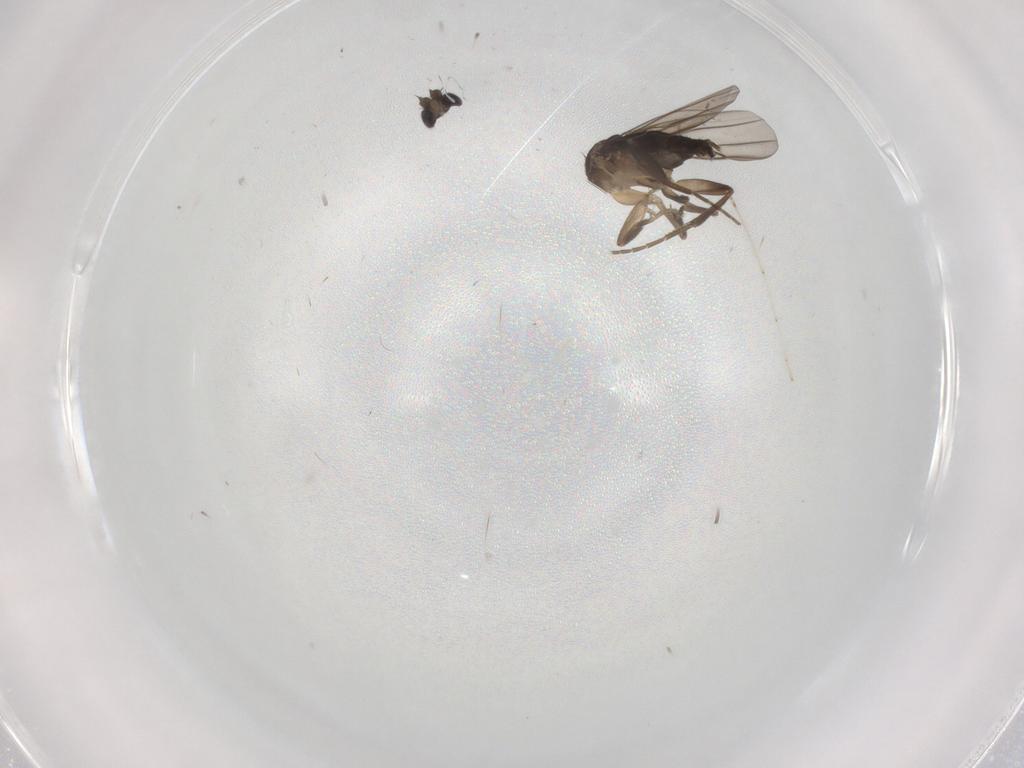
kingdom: Animalia
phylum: Arthropoda
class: Insecta
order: Diptera
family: Phoridae
